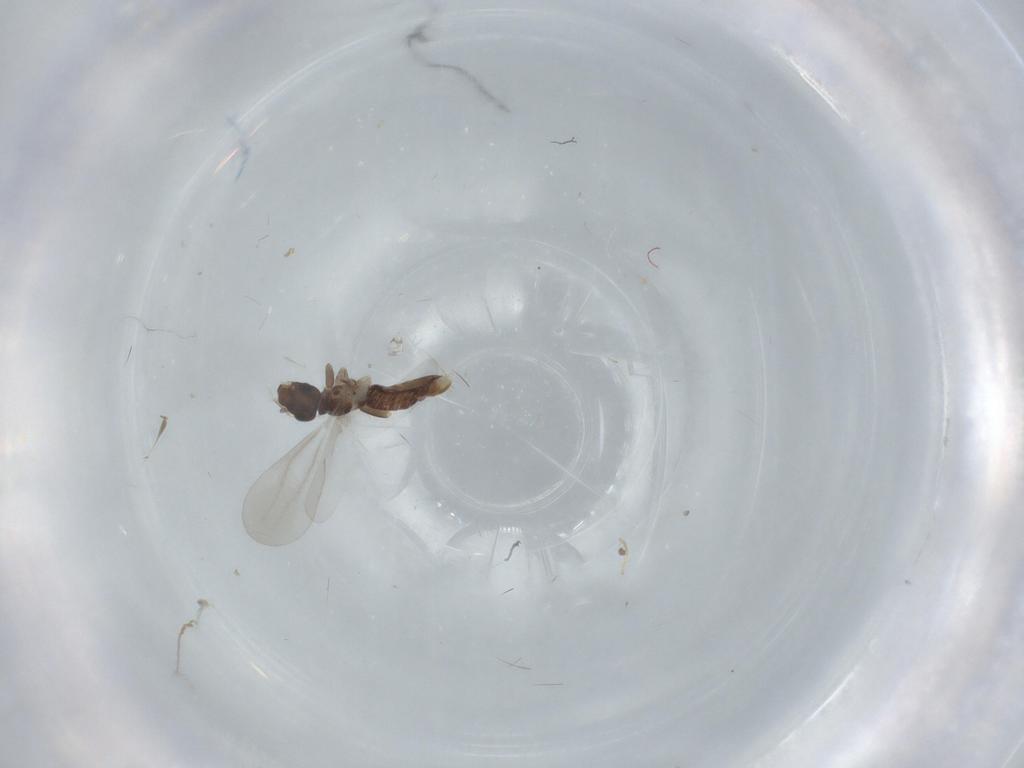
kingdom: Animalia
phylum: Arthropoda
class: Insecta
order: Psocodea
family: Liposcelididae
